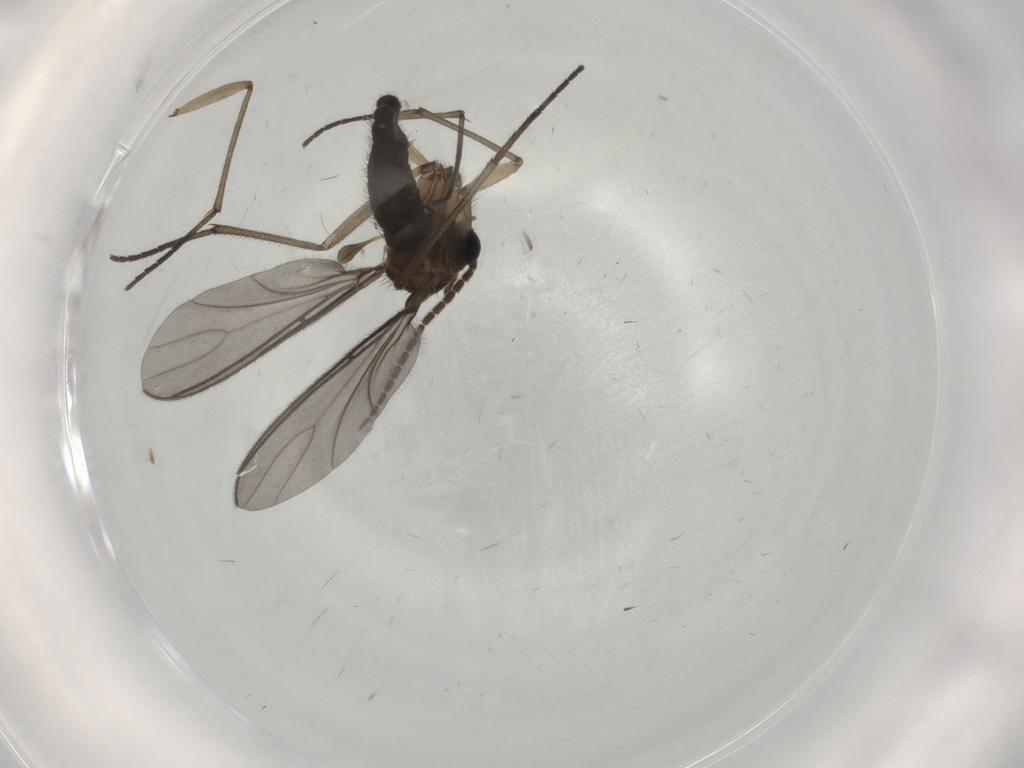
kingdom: Animalia
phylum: Arthropoda
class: Insecta
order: Diptera
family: Sciaridae
